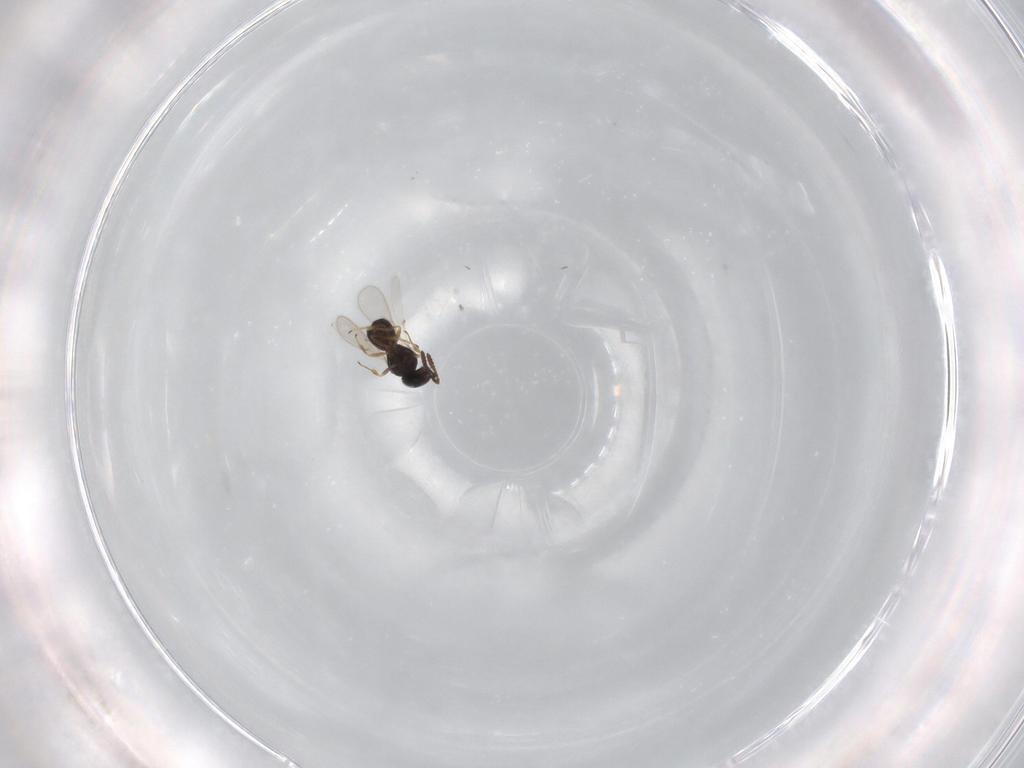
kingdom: Animalia
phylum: Arthropoda
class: Insecta
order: Hymenoptera
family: Scelionidae
